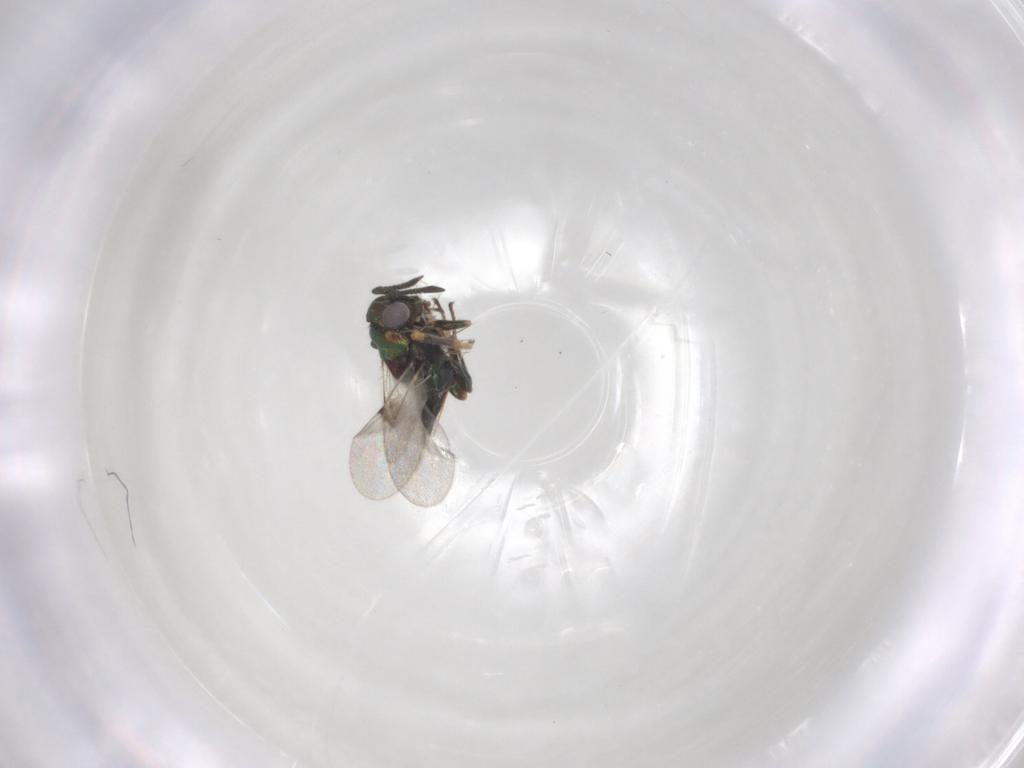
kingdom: Animalia
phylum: Arthropoda
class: Insecta
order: Hymenoptera
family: Encyrtidae
